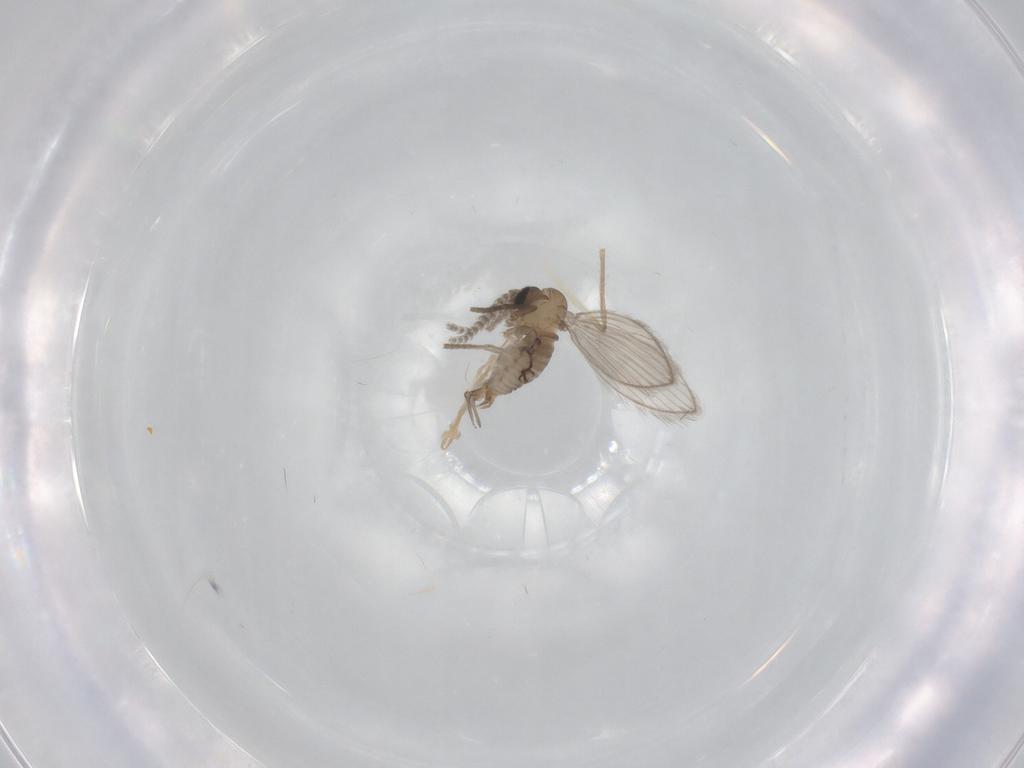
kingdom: Animalia
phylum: Arthropoda
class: Insecta
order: Diptera
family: Psychodidae
